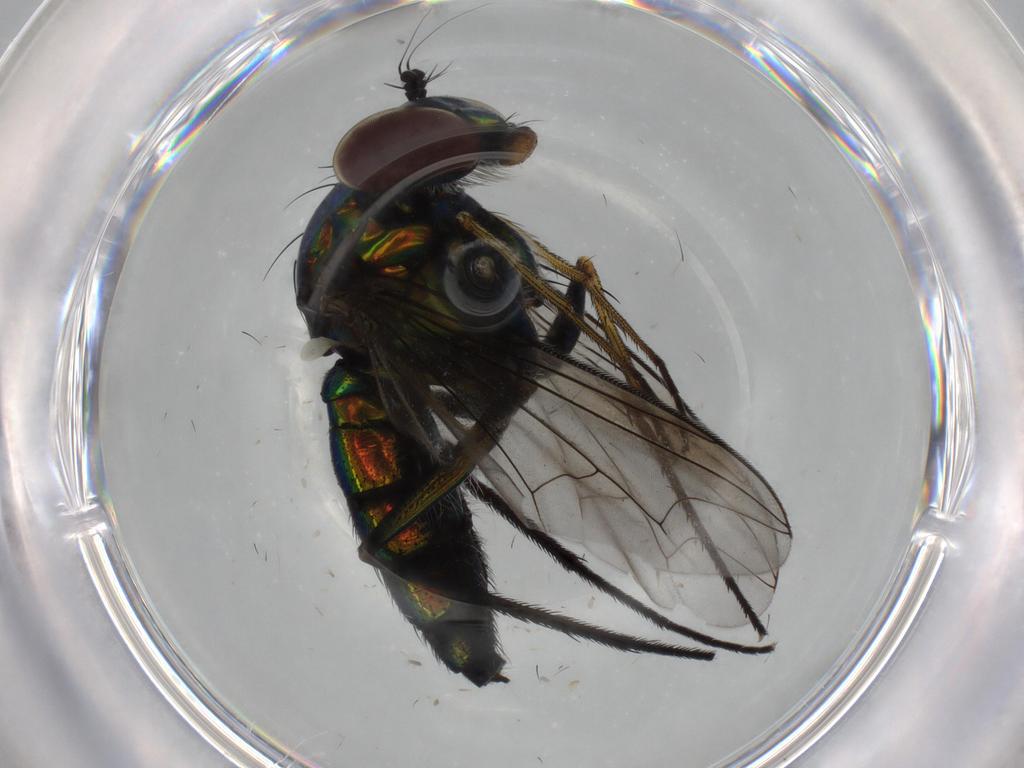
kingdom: Animalia
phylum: Arthropoda
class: Insecta
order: Diptera
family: Dolichopodidae
